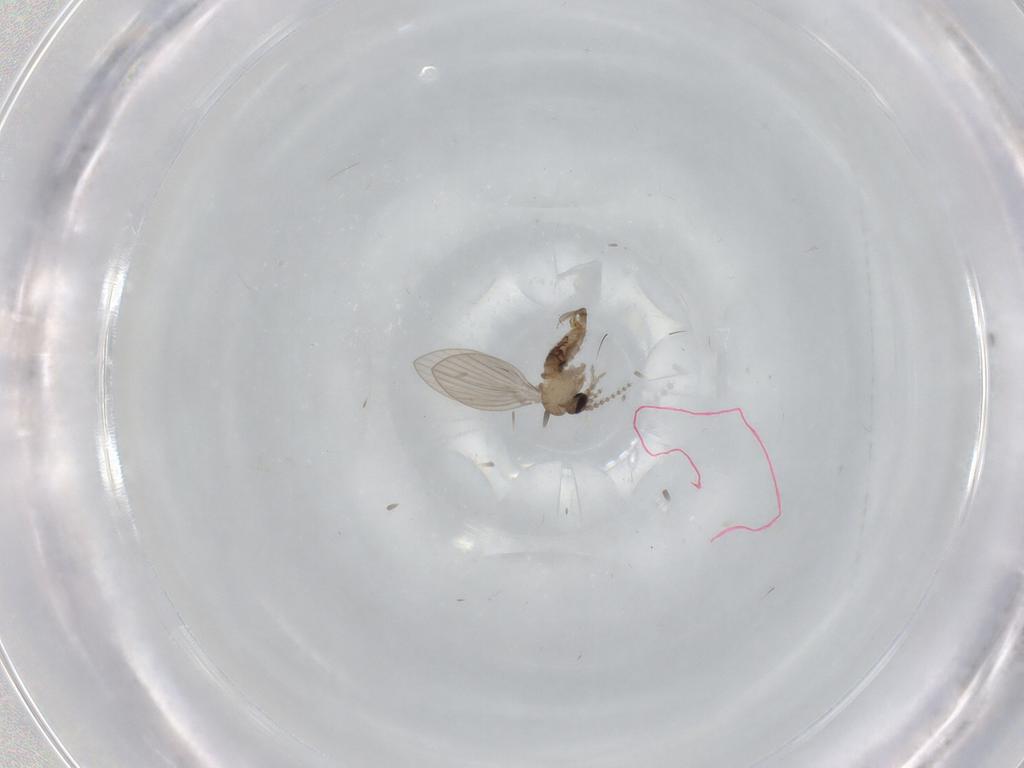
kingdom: Animalia
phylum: Arthropoda
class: Insecta
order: Diptera
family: Psychodidae
